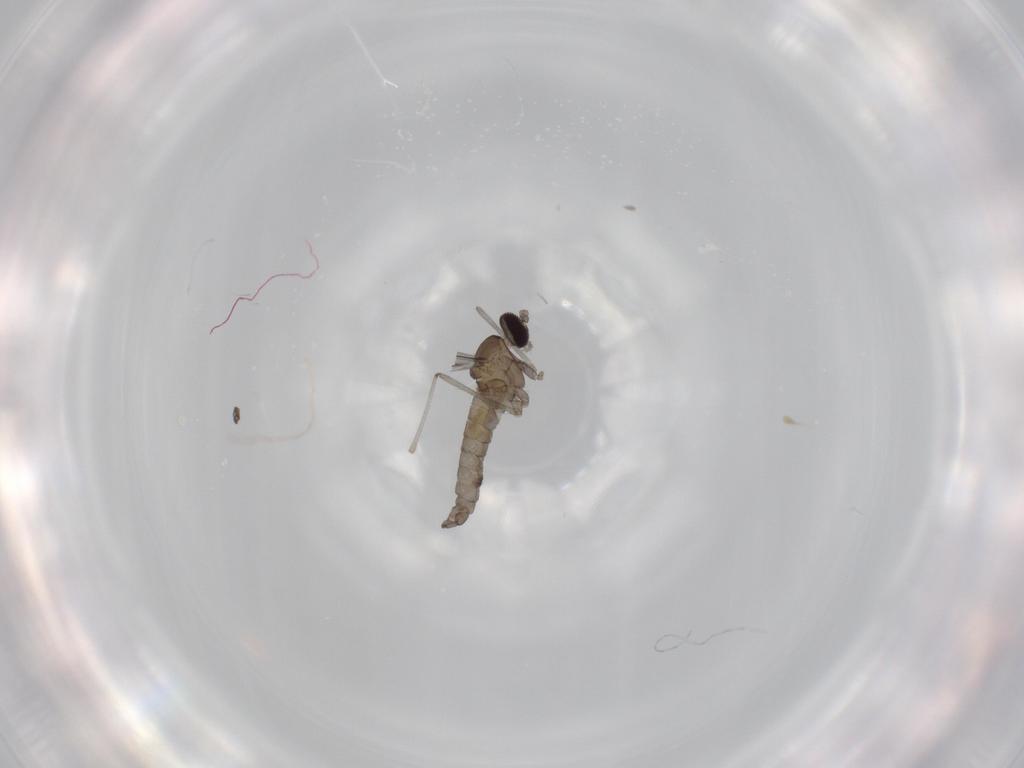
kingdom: Animalia
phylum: Arthropoda
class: Insecta
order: Diptera
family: Cecidomyiidae
